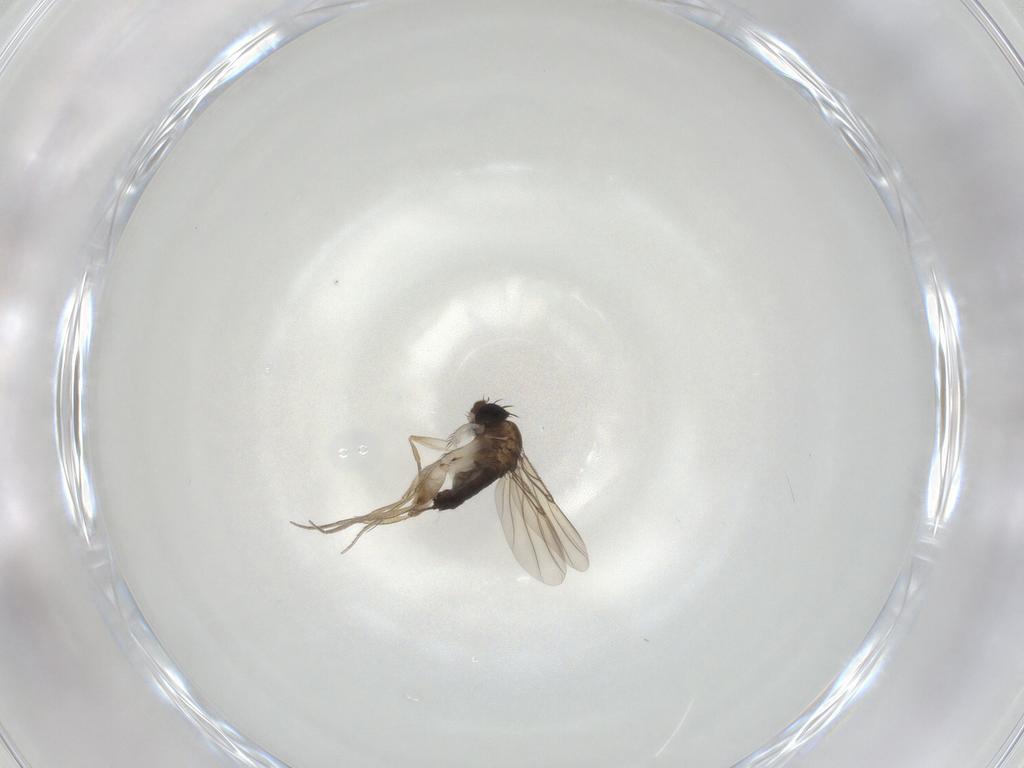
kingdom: Animalia
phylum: Arthropoda
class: Insecta
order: Diptera
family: Phoridae
